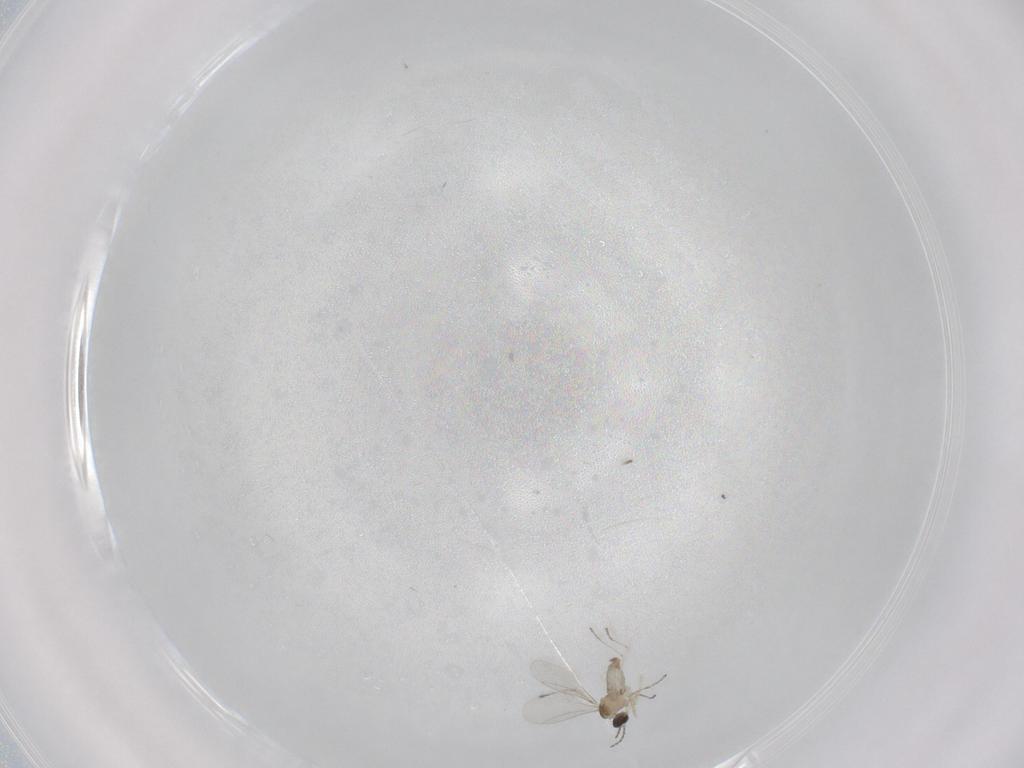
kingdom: Animalia
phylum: Arthropoda
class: Insecta
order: Diptera
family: Cecidomyiidae
